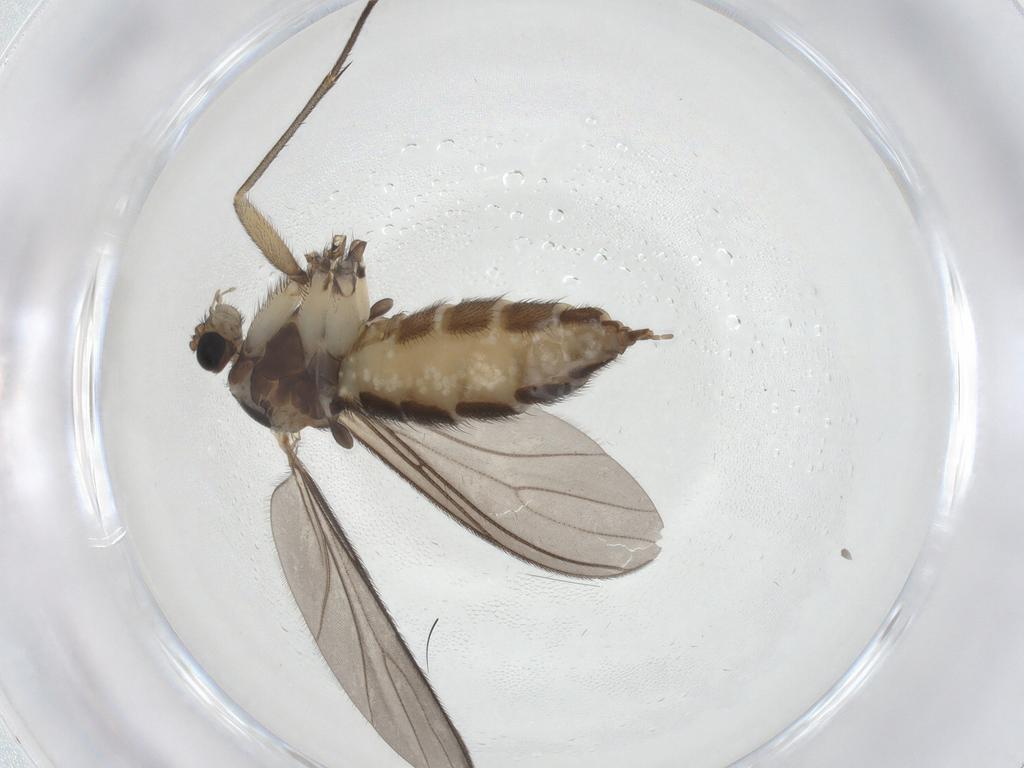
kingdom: Animalia
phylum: Arthropoda
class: Insecta
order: Diptera
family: Sciaridae
